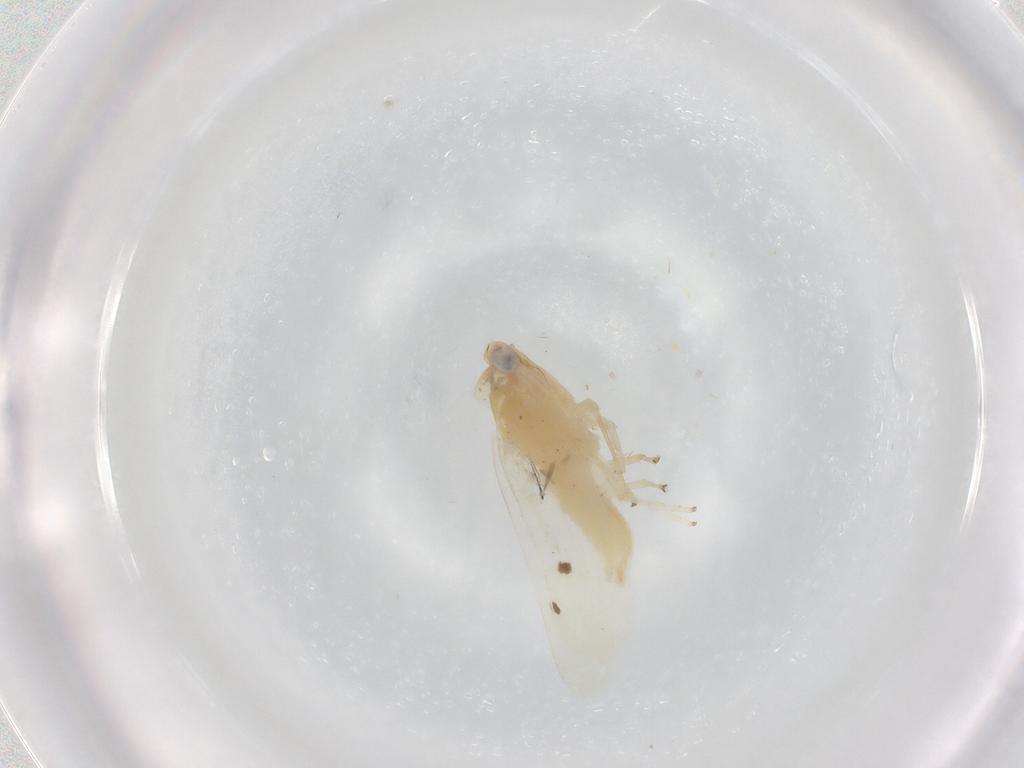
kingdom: Animalia
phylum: Arthropoda
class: Insecta
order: Hemiptera
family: Cicadellidae
